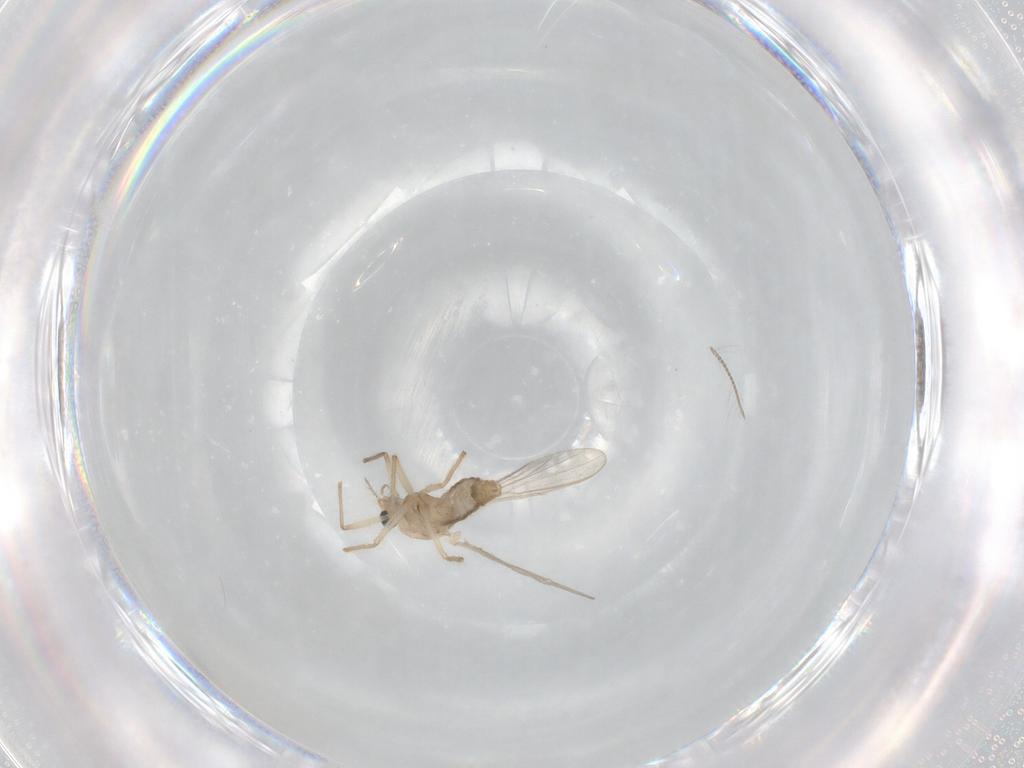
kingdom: Animalia
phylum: Arthropoda
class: Insecta
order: Diptera
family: Chironomidae
